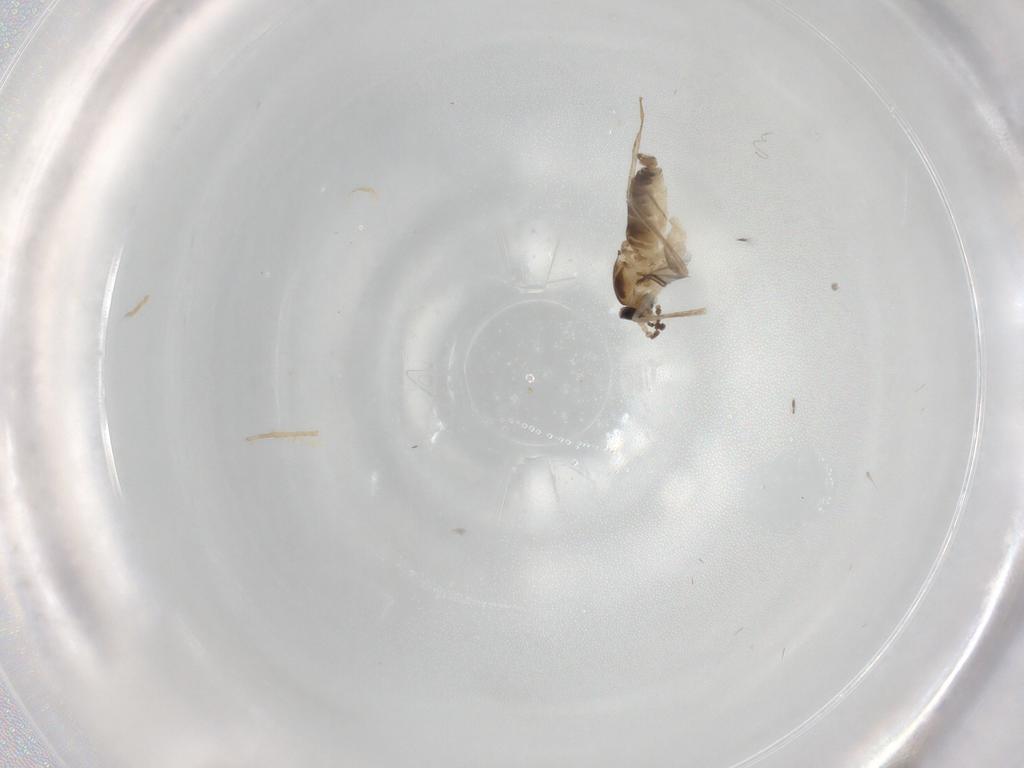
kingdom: Animalia
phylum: Arthropoda
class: Insecta
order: Diptera
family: Cecidomyiidae
